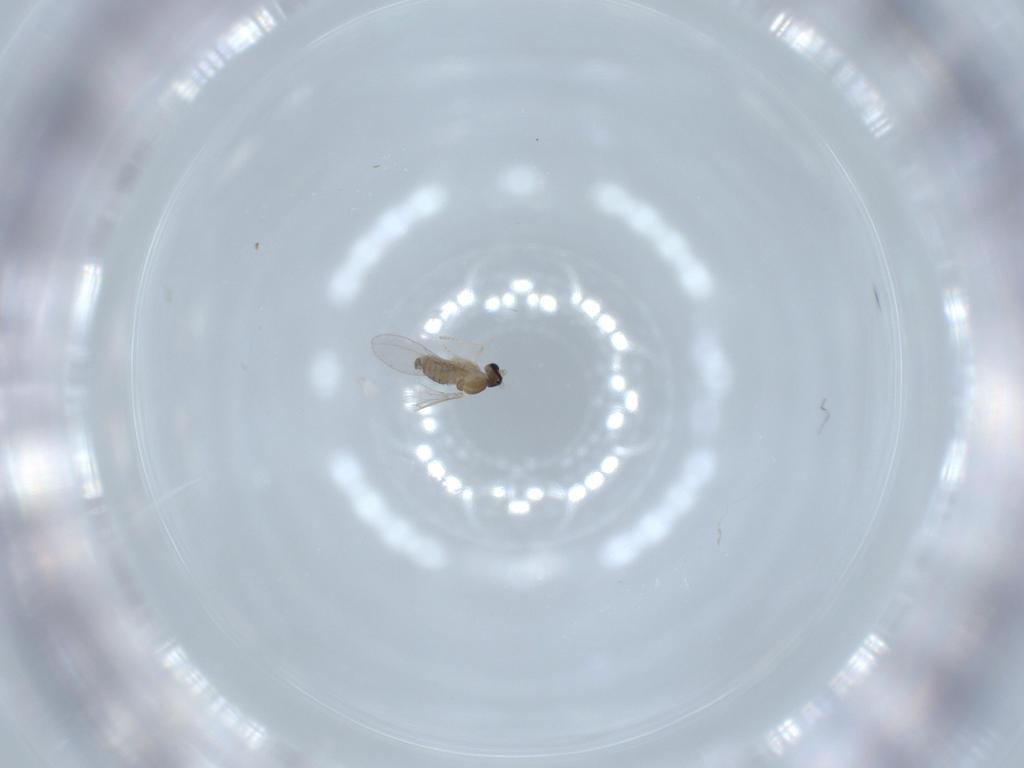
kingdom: Animalia
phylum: Arthropoda
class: Insecta
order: Diptera
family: Cecidomyiidae
